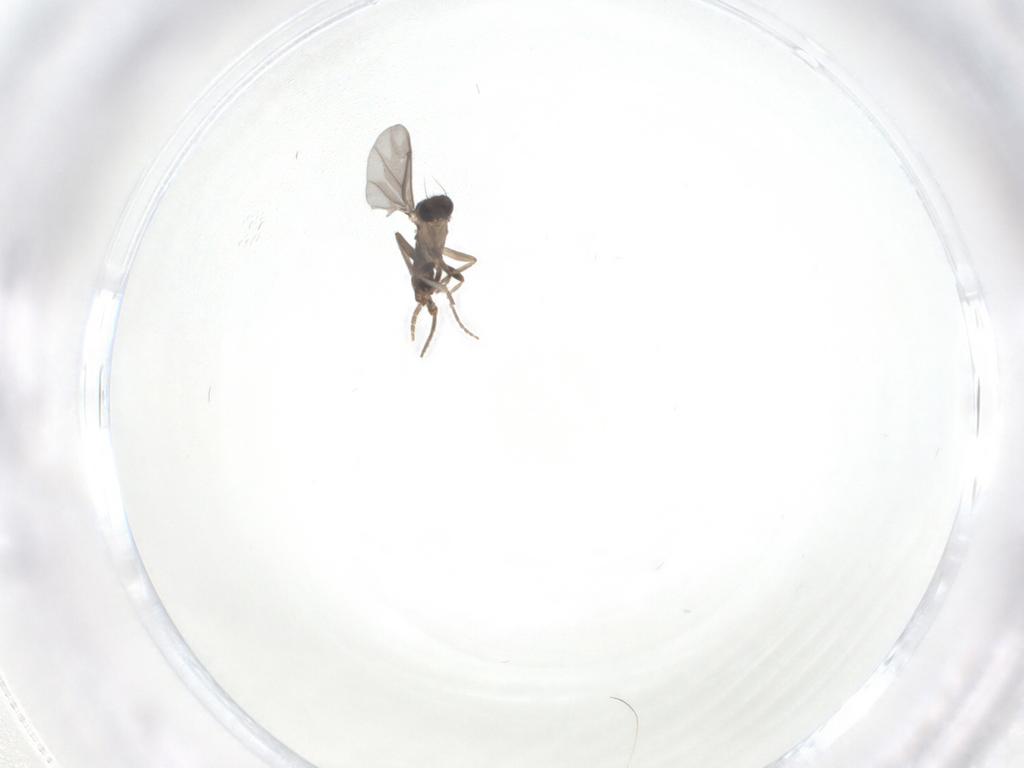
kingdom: Animalia
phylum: Arthropoda
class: Insecta
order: Diptera
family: Phoridae
